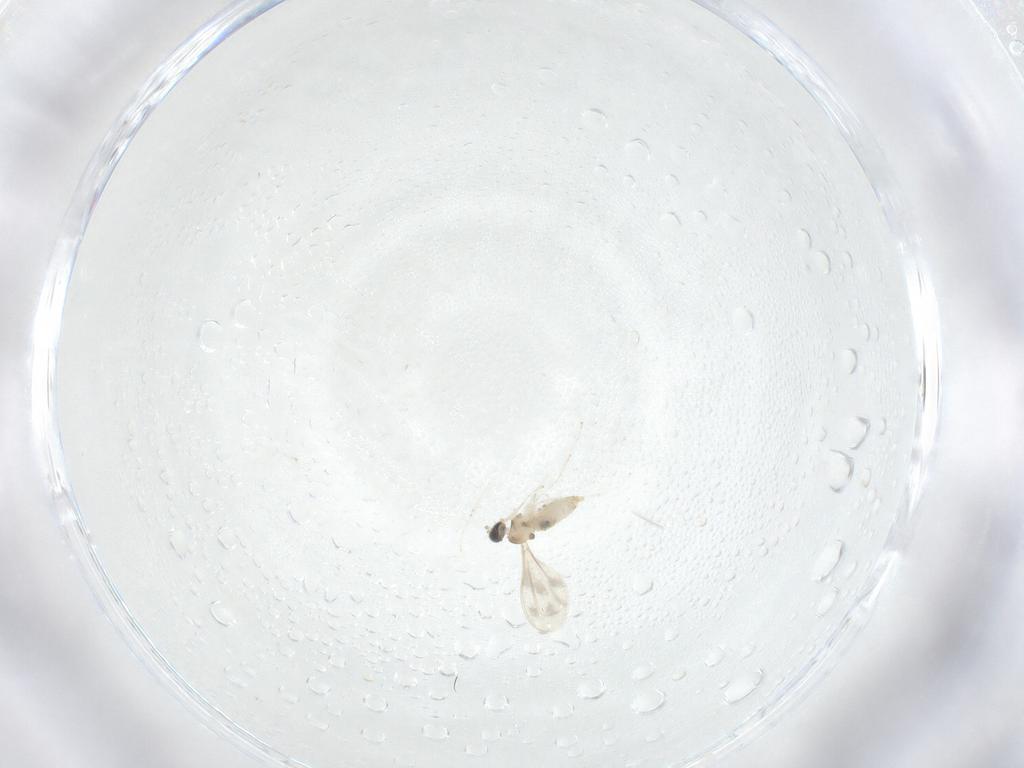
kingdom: Animalia
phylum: Arthropoda
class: Insecta
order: Diptera
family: Cecidomyiidae
